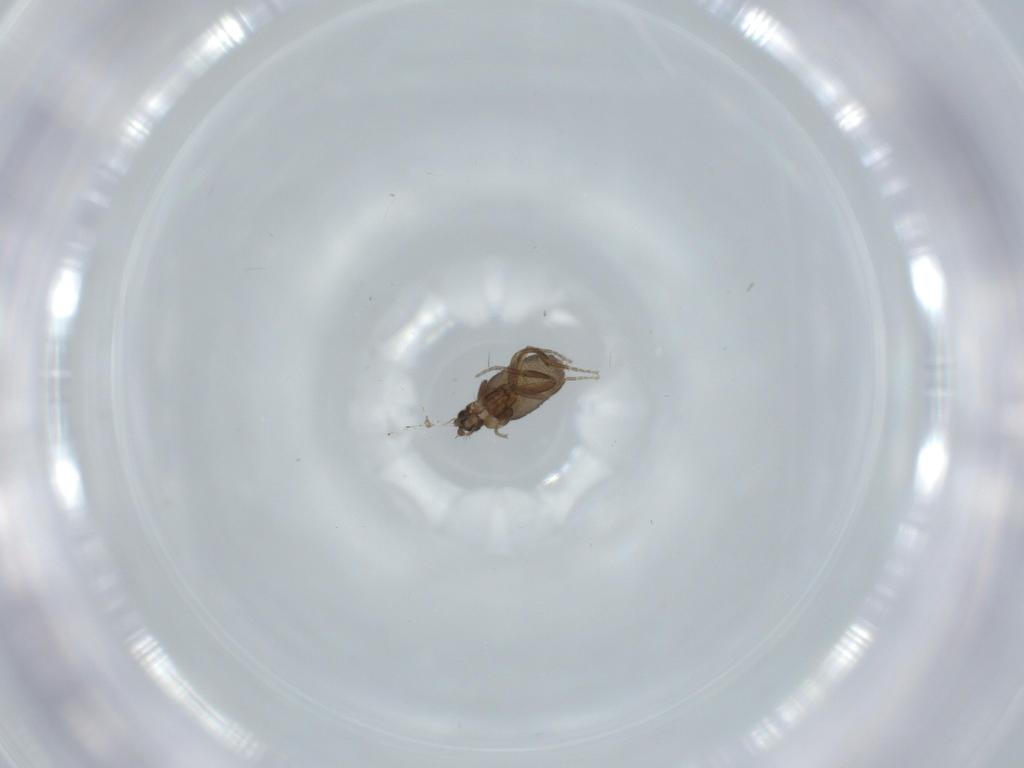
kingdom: Animalia
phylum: Arthropoda
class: Insecta
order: Diptera
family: Phoridae
